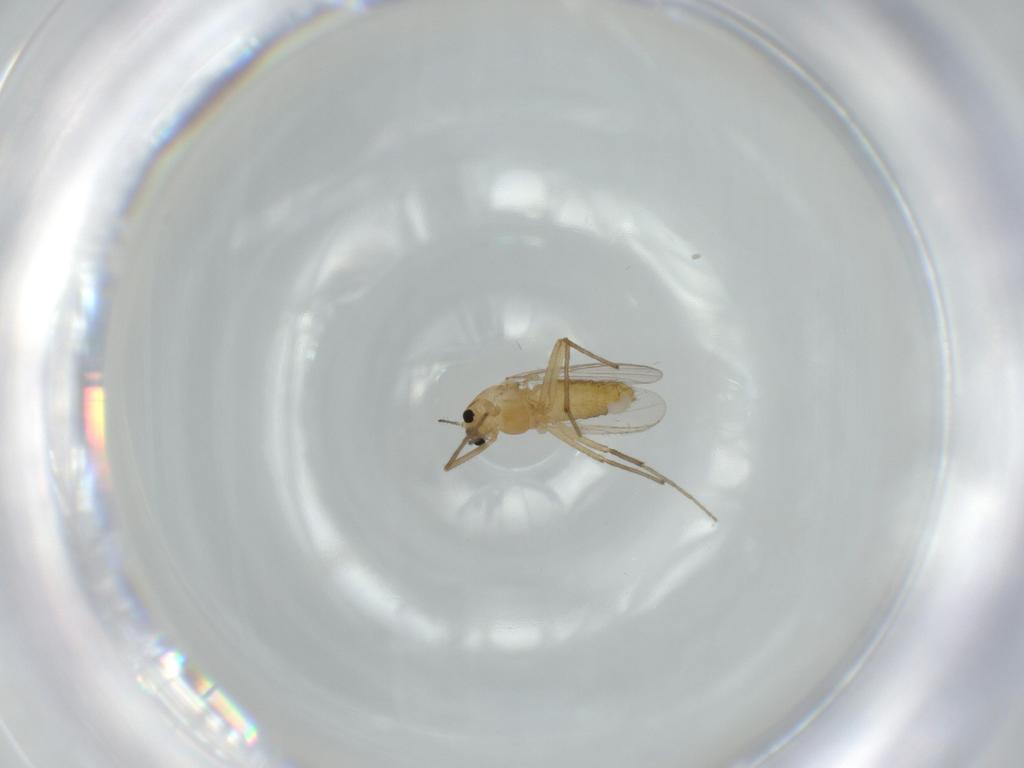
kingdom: Animalia
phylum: Arthropoda
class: Insecta
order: Diptera
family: Chironomidae
